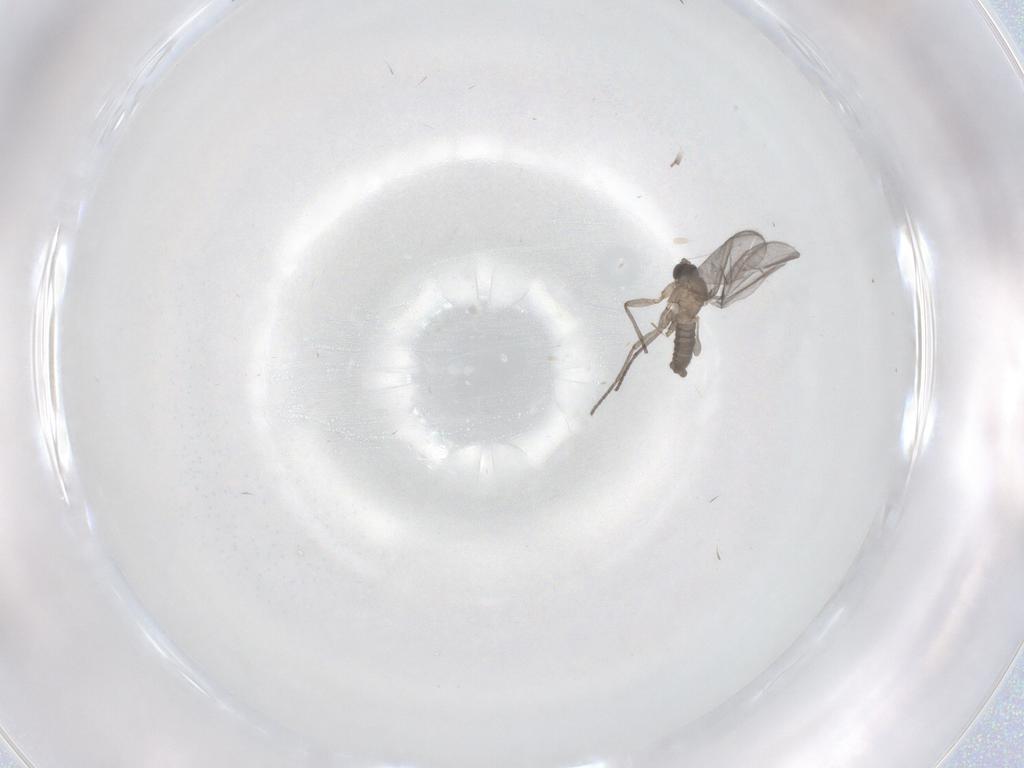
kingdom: Animalia
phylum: Arthropoda
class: Insecta
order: Diptera
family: Sciaridae
